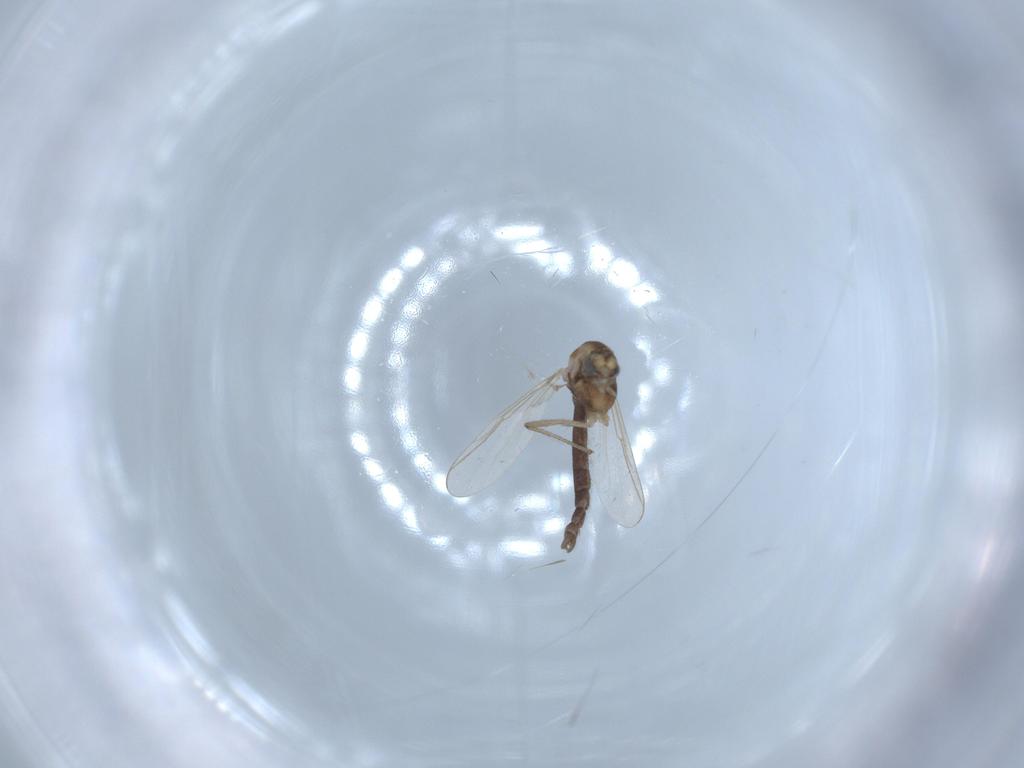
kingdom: Animalia
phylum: Arthropoda
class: Insecta
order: Diptera
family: Chironomidae
